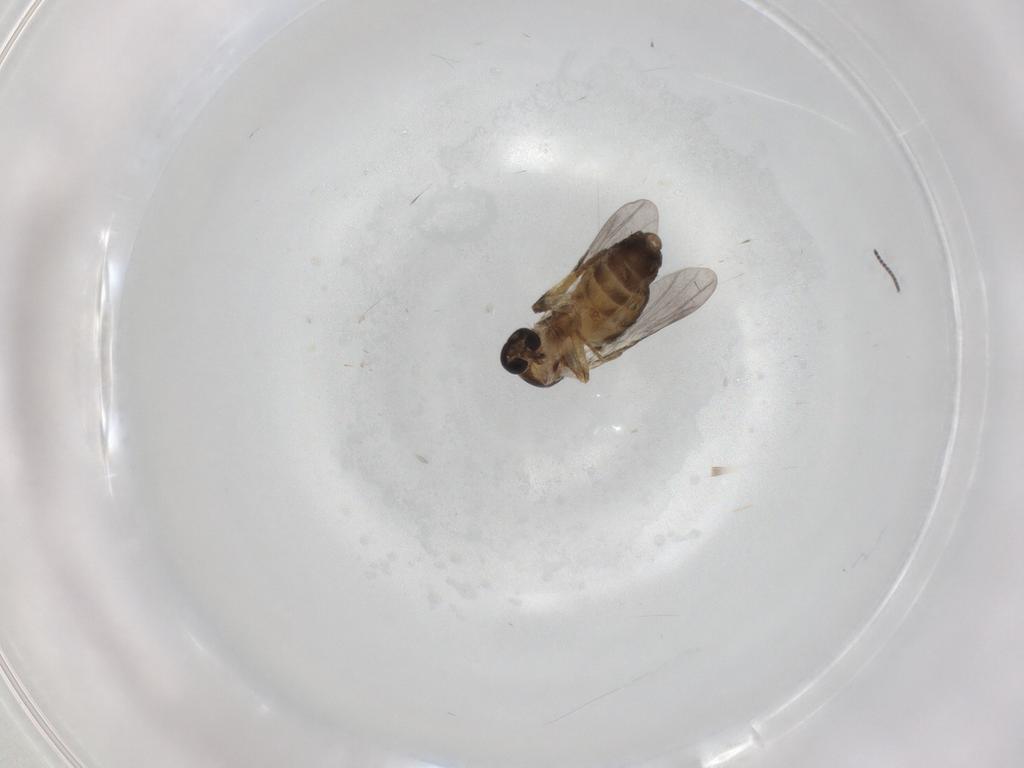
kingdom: Animalia
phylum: Arthropoda
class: Insecta
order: Diptera
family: Ceratopogonidae
